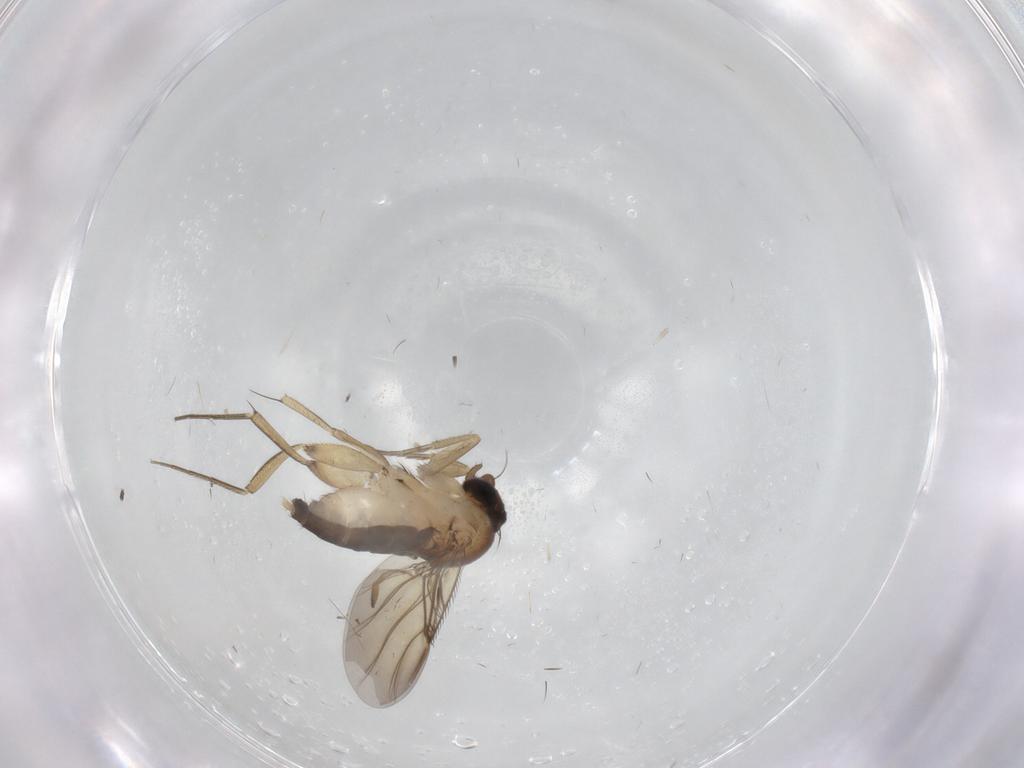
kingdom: Animalia
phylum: Arthropoda
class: Insecta
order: Diptera
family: Phoridae
